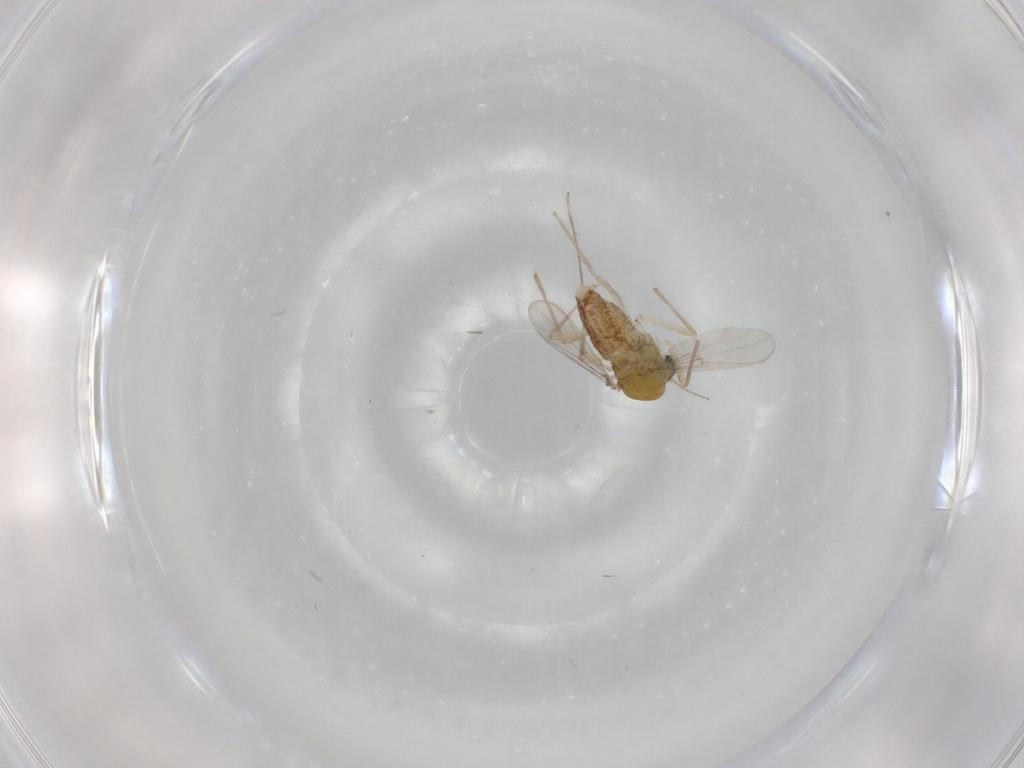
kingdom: Animalia
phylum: Arthropoda
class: Insecta
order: Diptera
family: Chironomidae
